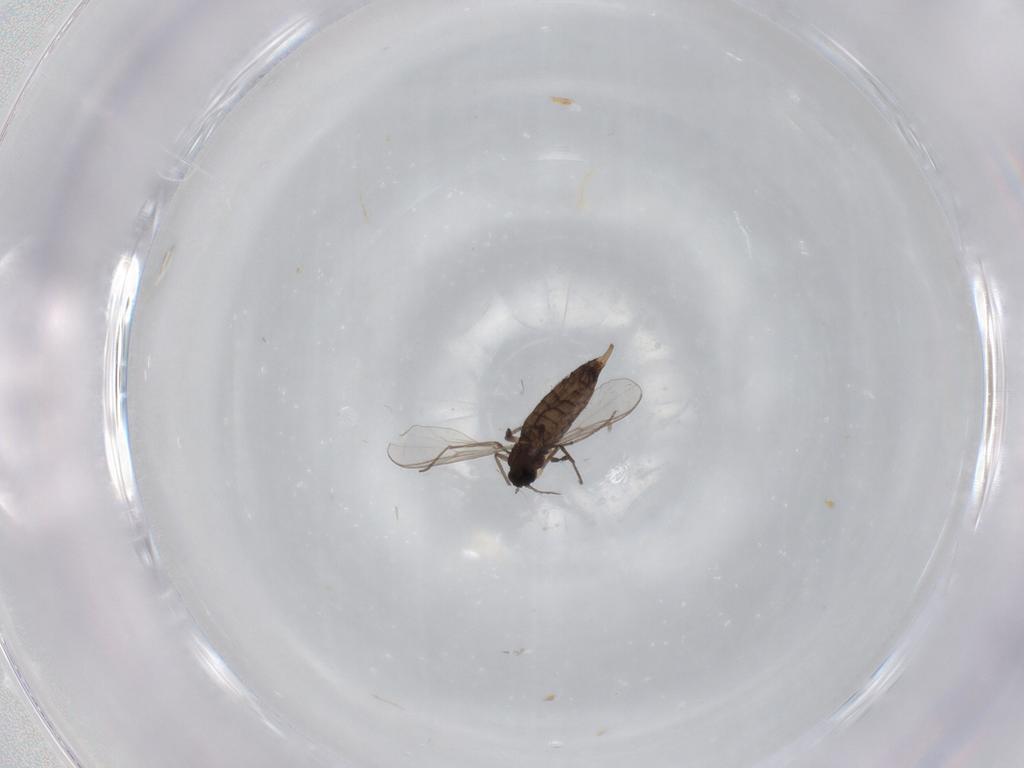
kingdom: Animalia
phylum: Arthropoda
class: Insecta
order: Diptera
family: Chironomidae
